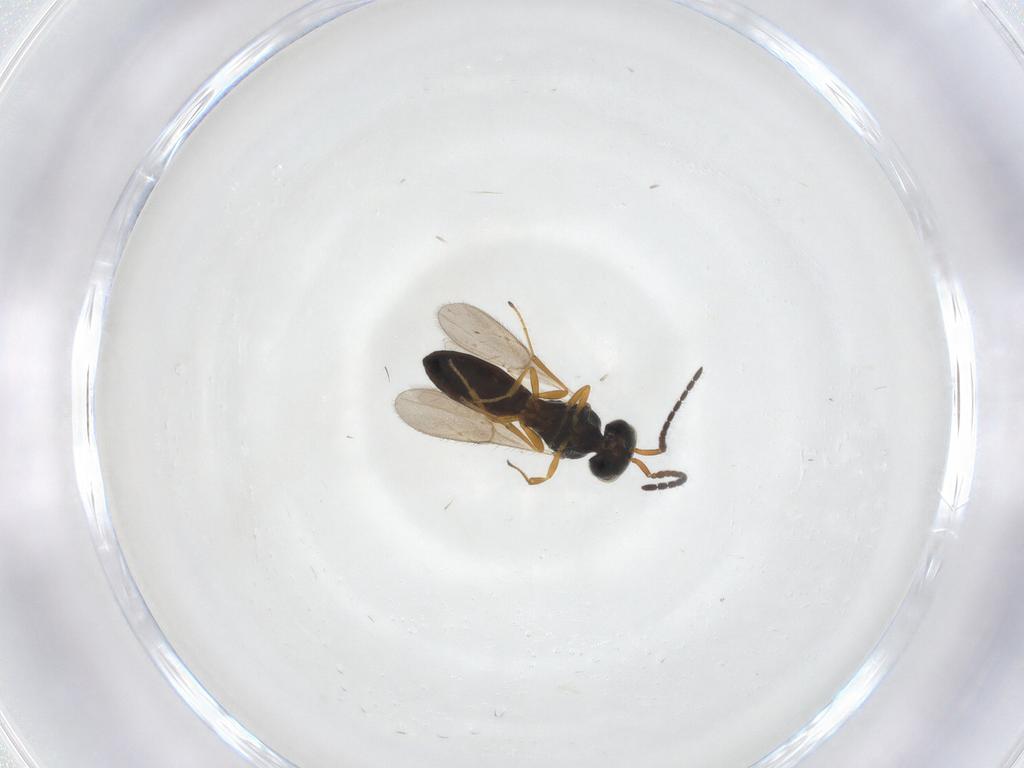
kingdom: Animalia
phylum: Arthropoda
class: Insecta
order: Hymenoptera
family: Scelionidae
